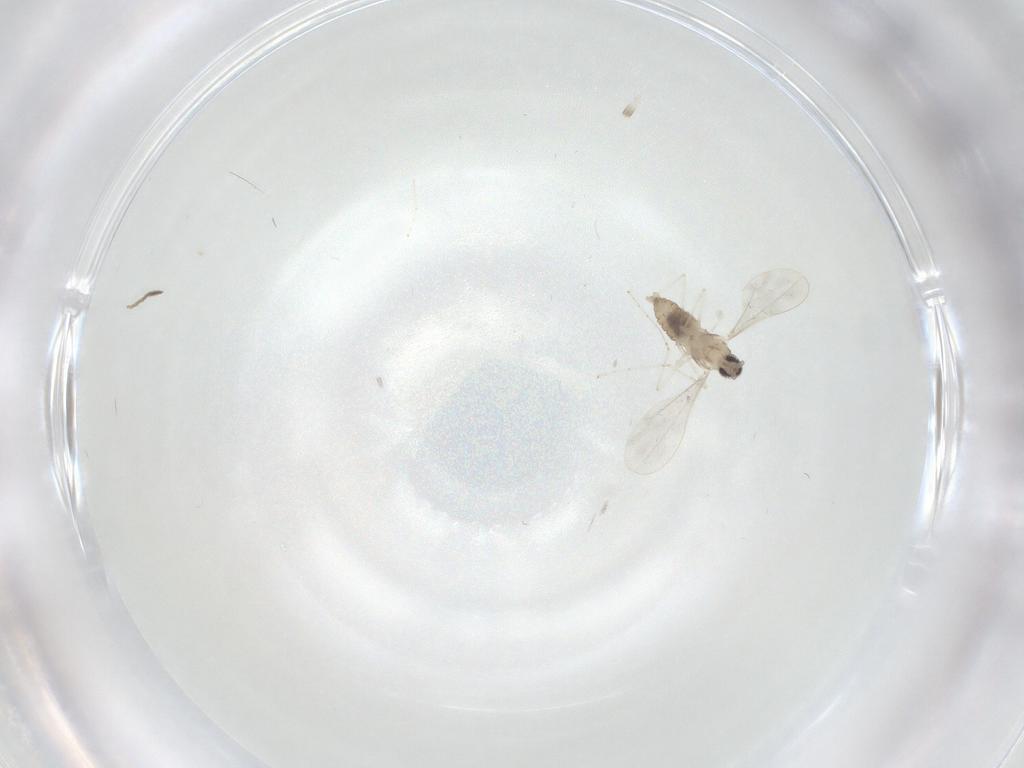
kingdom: Animalia
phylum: Arthropoda
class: Insecta
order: Diptera
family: Cecidomyiidae
